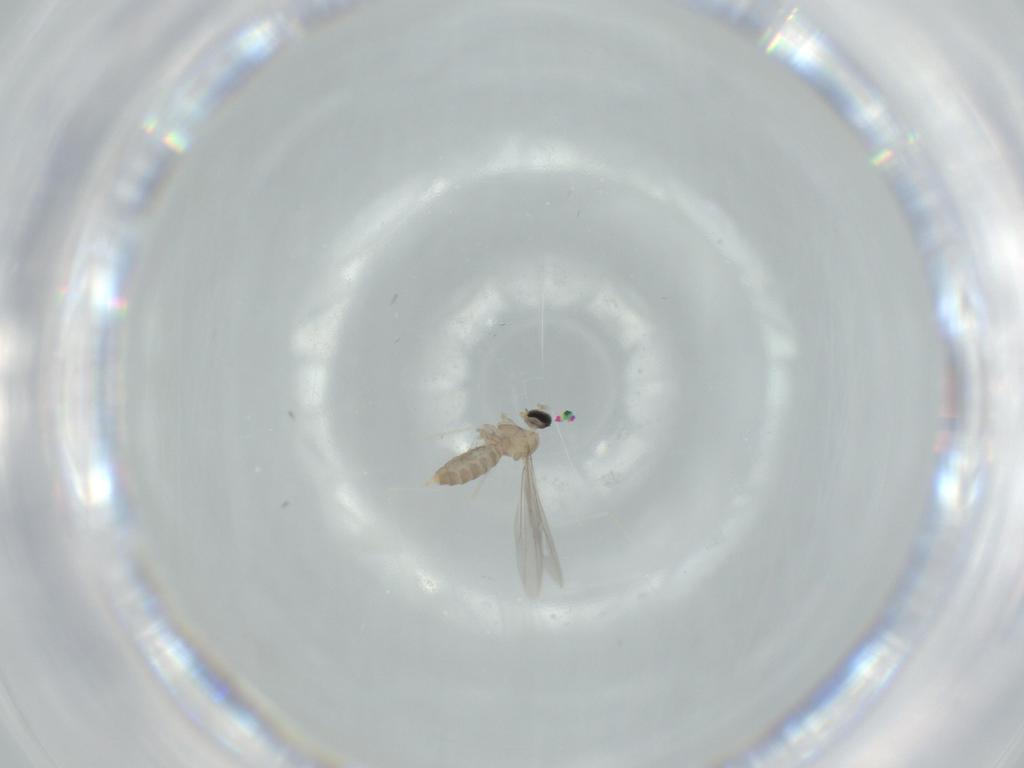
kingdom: Animalia
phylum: Arthropoda
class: Insecta
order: Diptera
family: Cecidomyiidae
